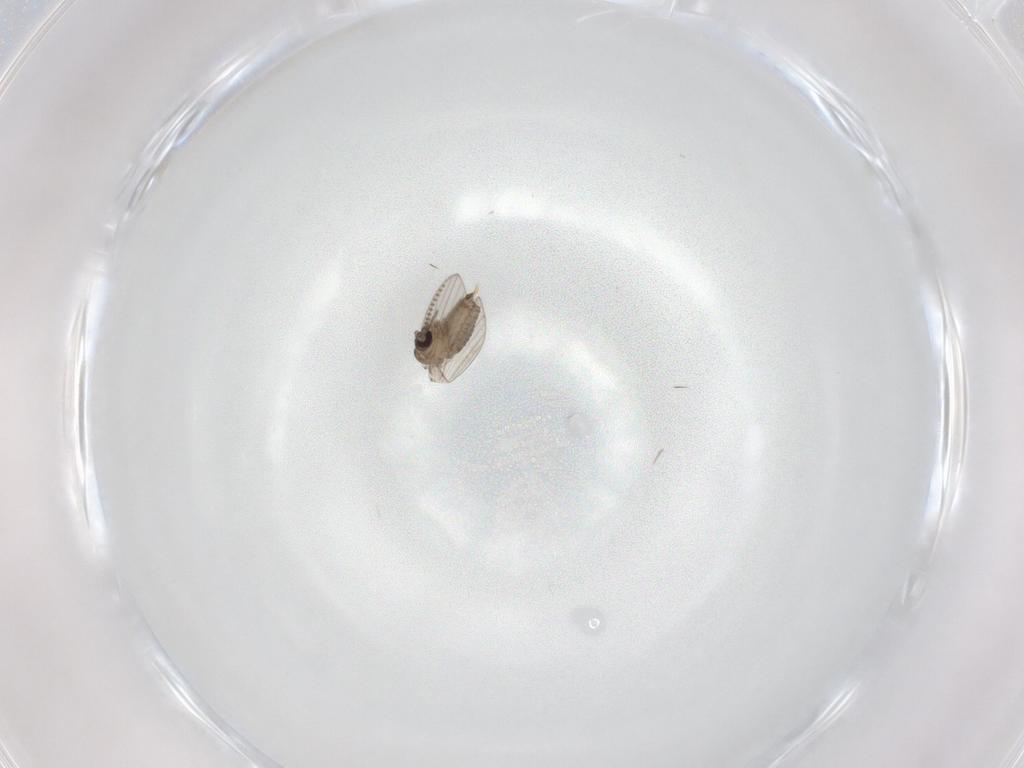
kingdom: Animalia
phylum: Arthropoda
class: Insecta
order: Diptera
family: Psychodidae
